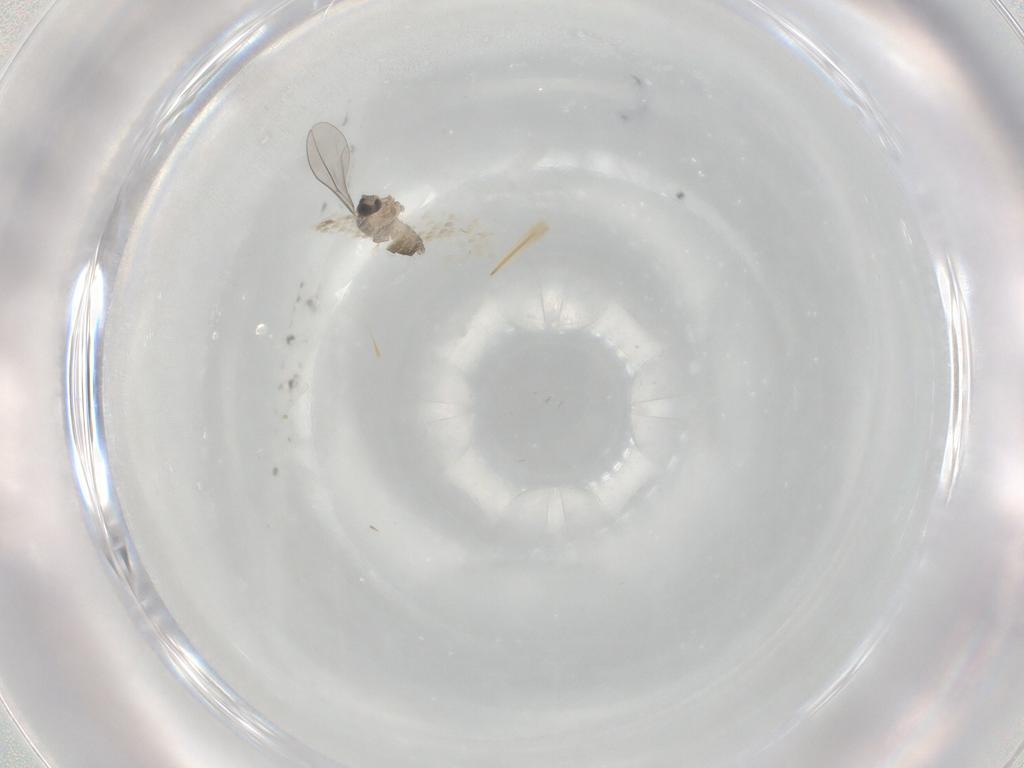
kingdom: Animalia
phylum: Arthropoda
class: Insecta
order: Diptera
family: Cecidomyiidae
